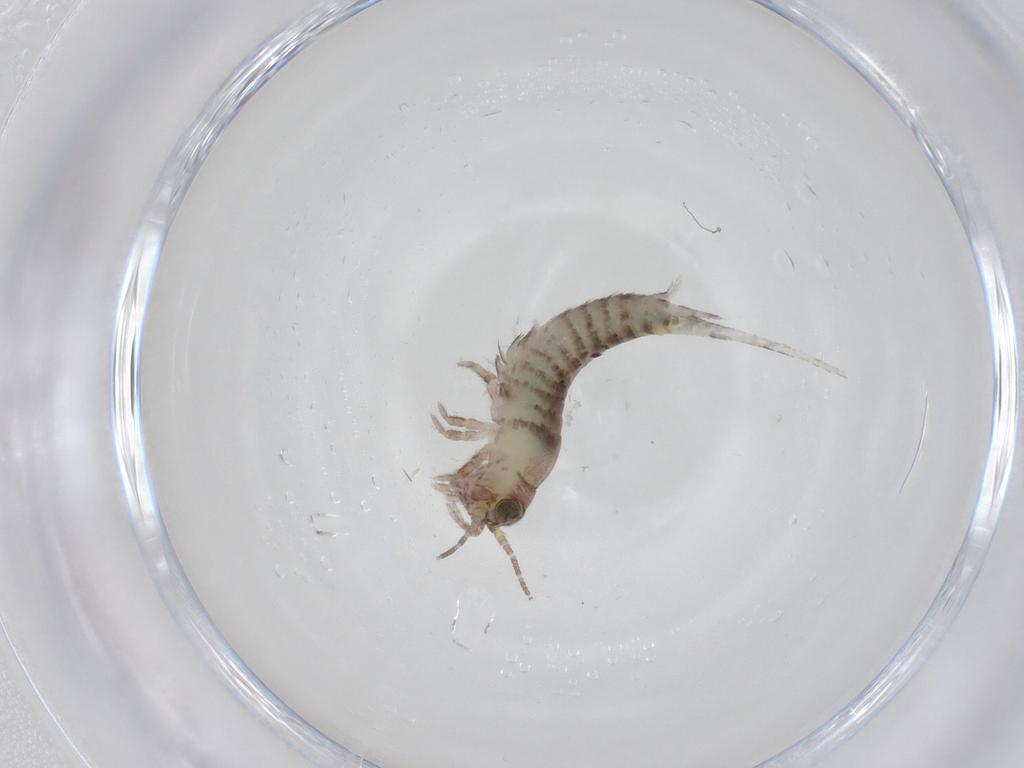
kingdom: Animalia
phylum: Arthropoda
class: Insecta
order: Archaeognatha
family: Machilidae
